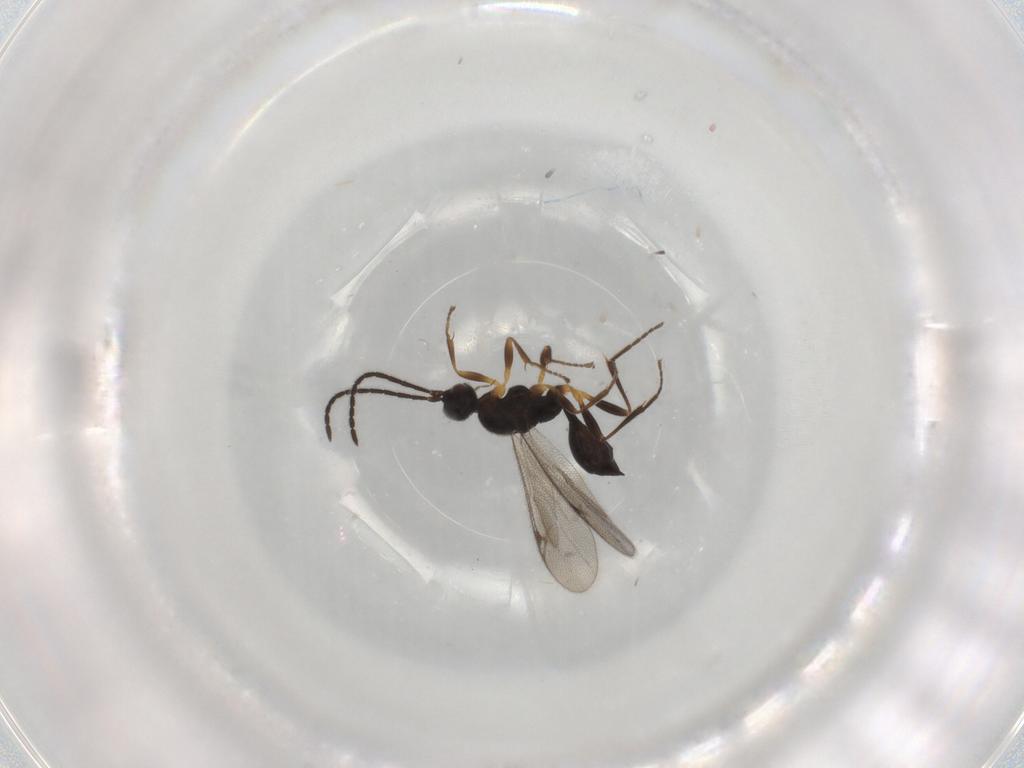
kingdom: Animalia
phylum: Arthropoda
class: Insecta
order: Hymenoptera
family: Proctotrupidae
